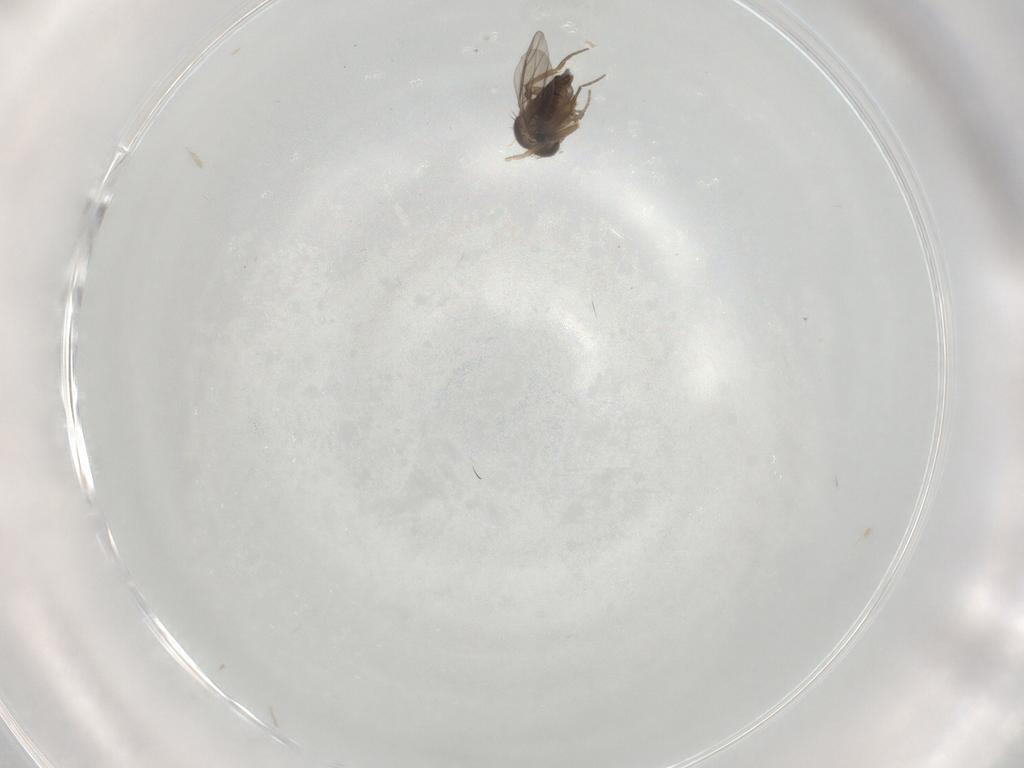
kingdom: Animalia
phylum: Arthropoda
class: Insecta
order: Diptera
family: Phoridae
